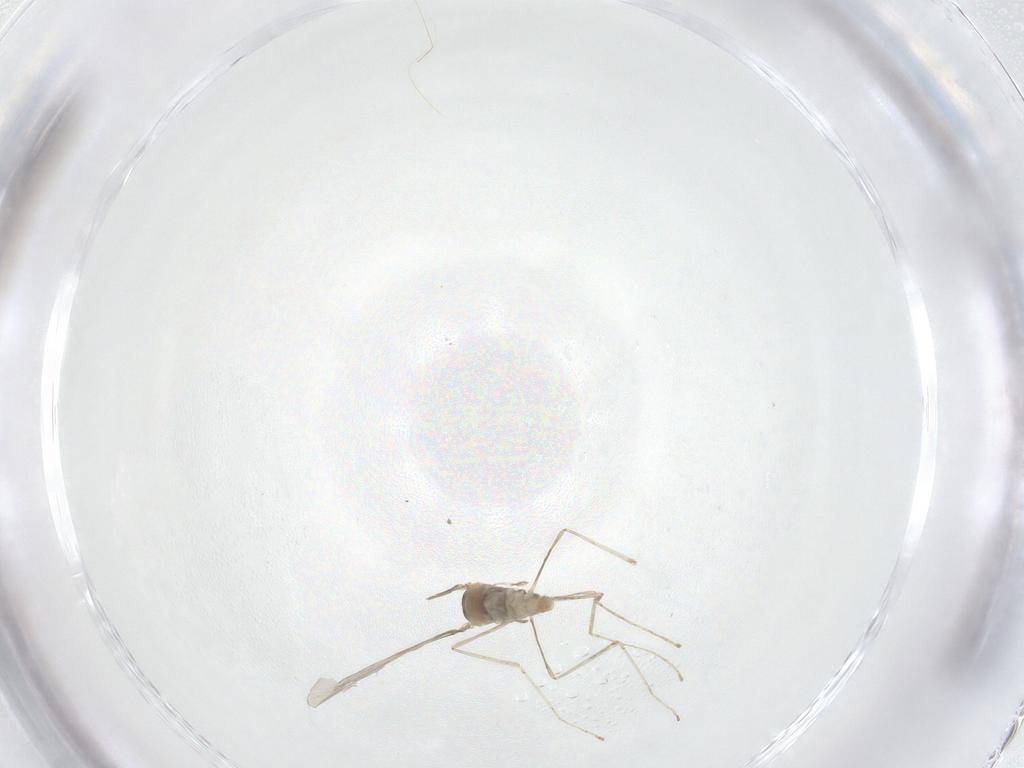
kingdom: Animalia
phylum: Arthropoda
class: Insecta
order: Diptera
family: Cecidomyiidae
